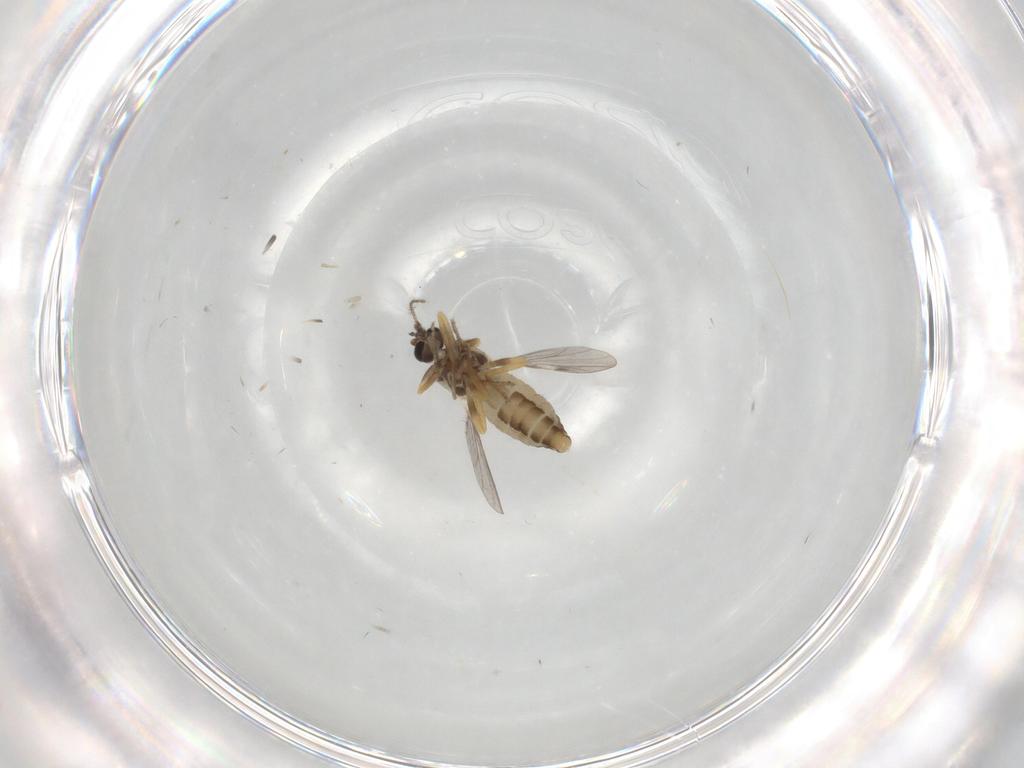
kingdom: Animalia
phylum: Arthropoda
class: Insecta
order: Diptera
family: Ceratopogonidae
